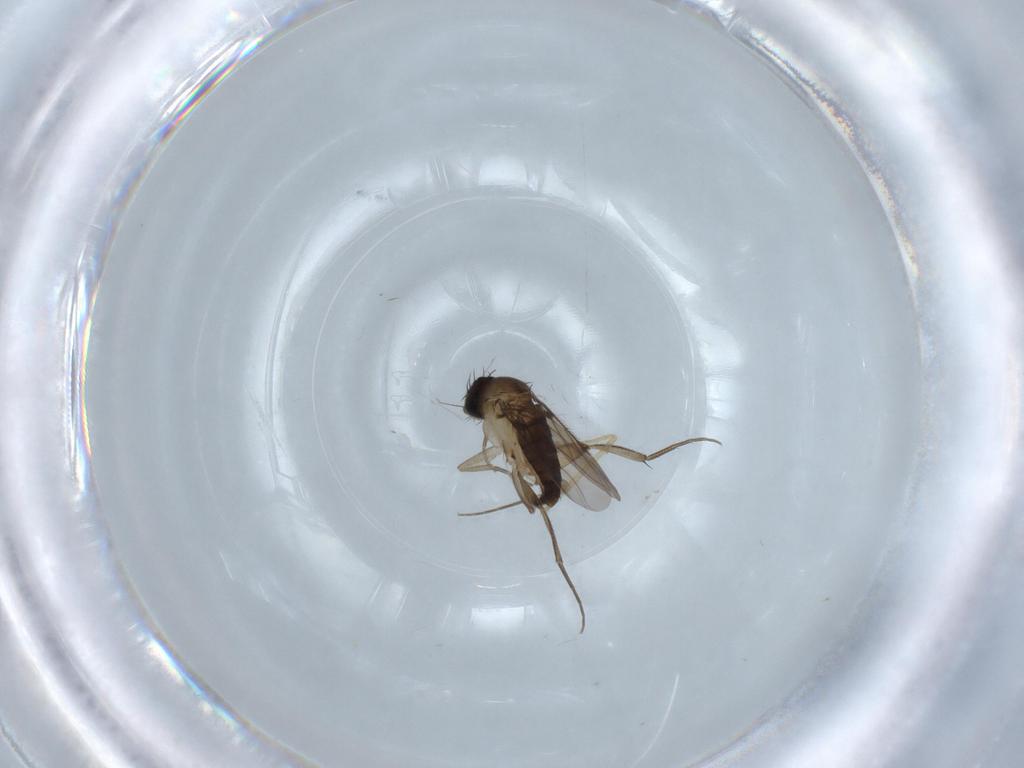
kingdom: Animalia
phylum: Arthropoda
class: Insecta
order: Diptera
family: Phoridae
